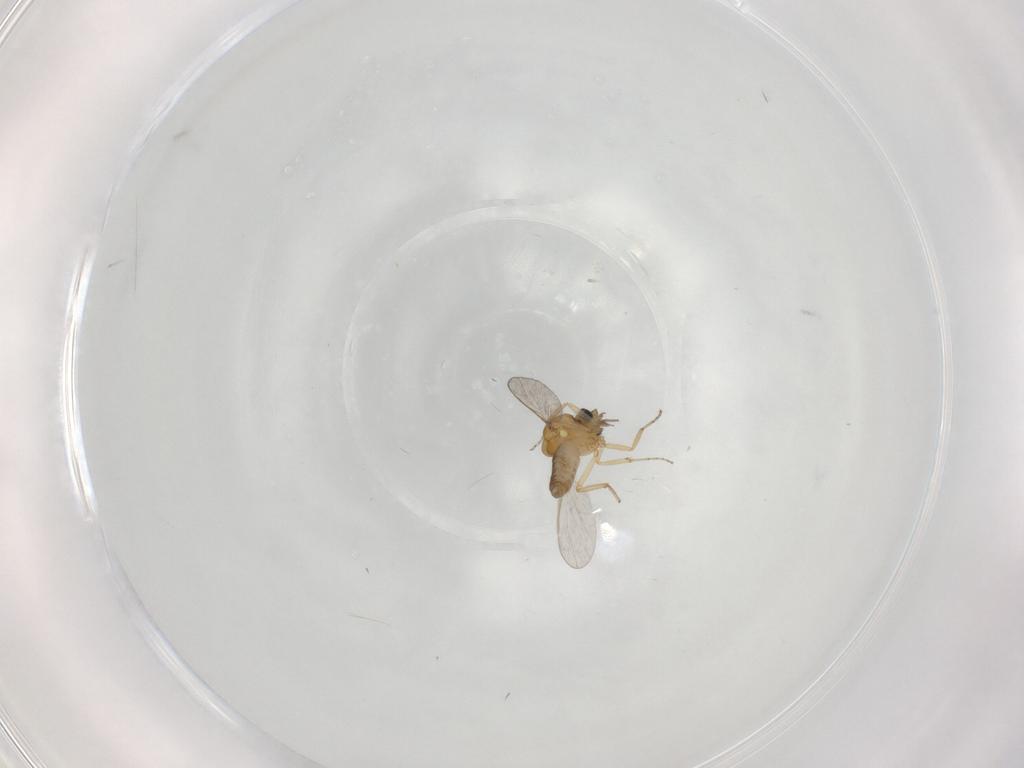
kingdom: Animalia
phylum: Arthropoda
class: Insecta
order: Diptera
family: Ceratopogonidae
